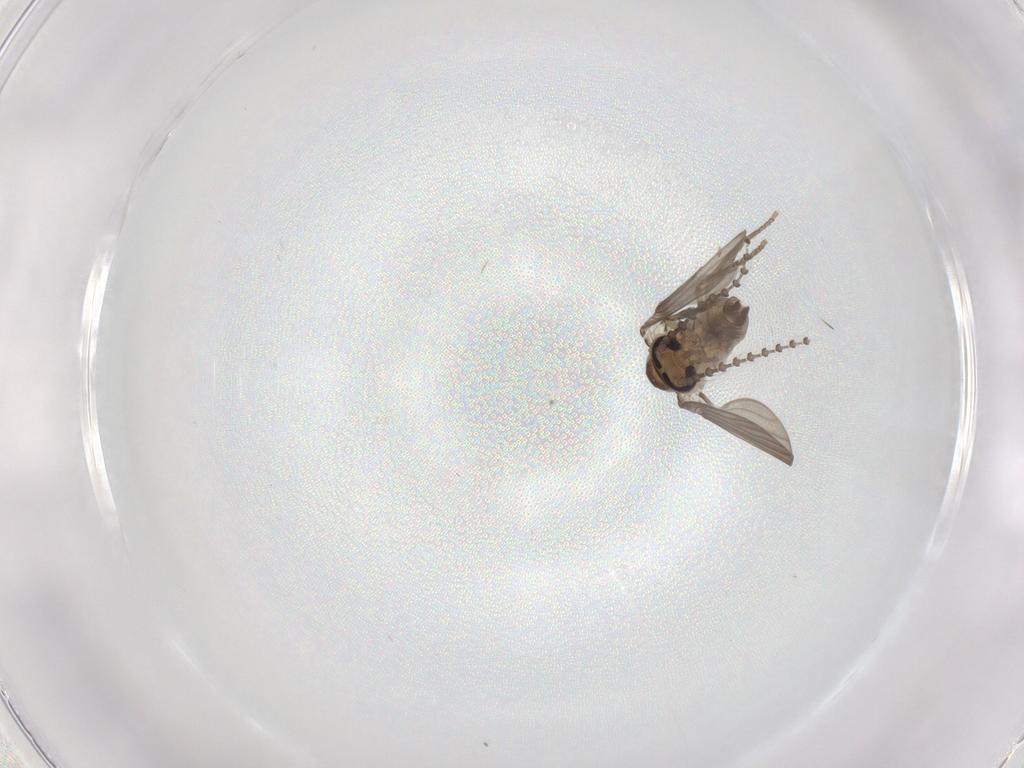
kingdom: Animalia
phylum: Arthropoda
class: Insecta
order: Diptera
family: Psychodidae
